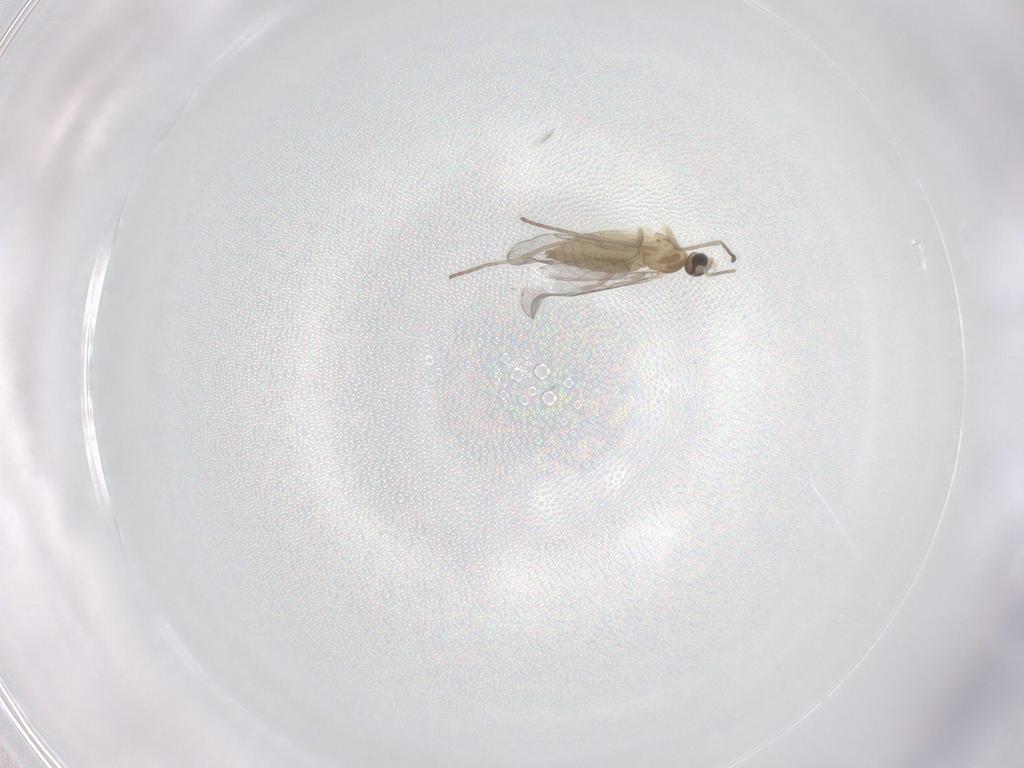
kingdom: Animalia
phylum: Arthropoda
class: Insecta
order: Diptera
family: Cecidomyiidae
